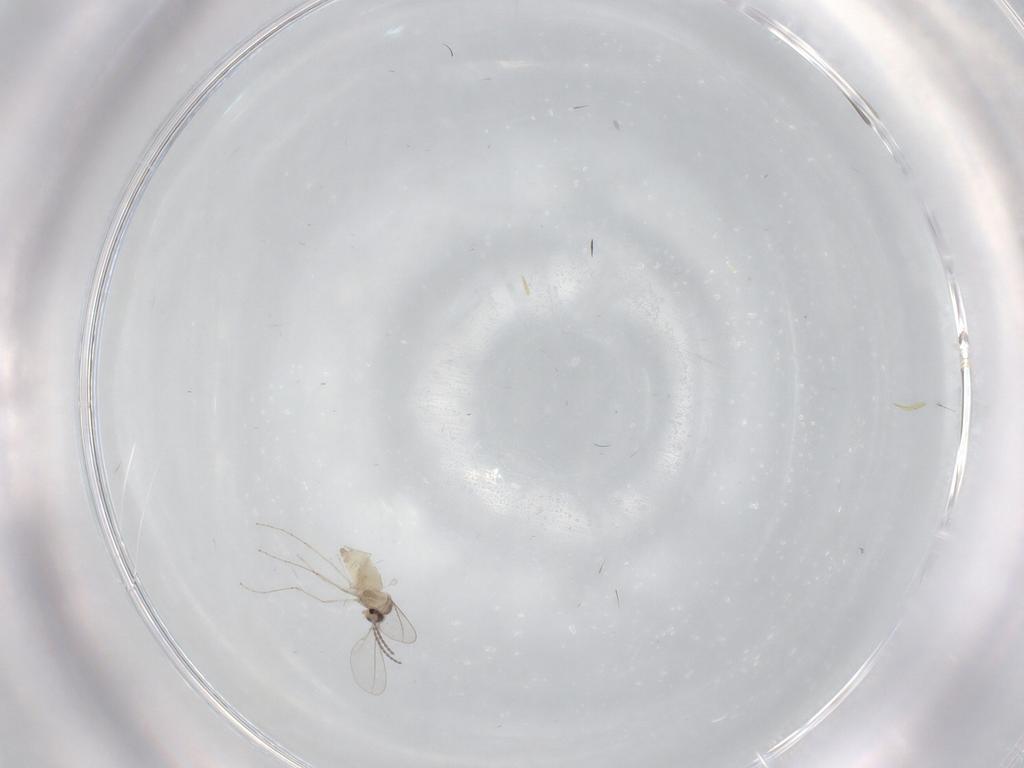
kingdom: Animalia
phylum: Arthropoda
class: Insecta
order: Diptera
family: Cecidomyiidae
